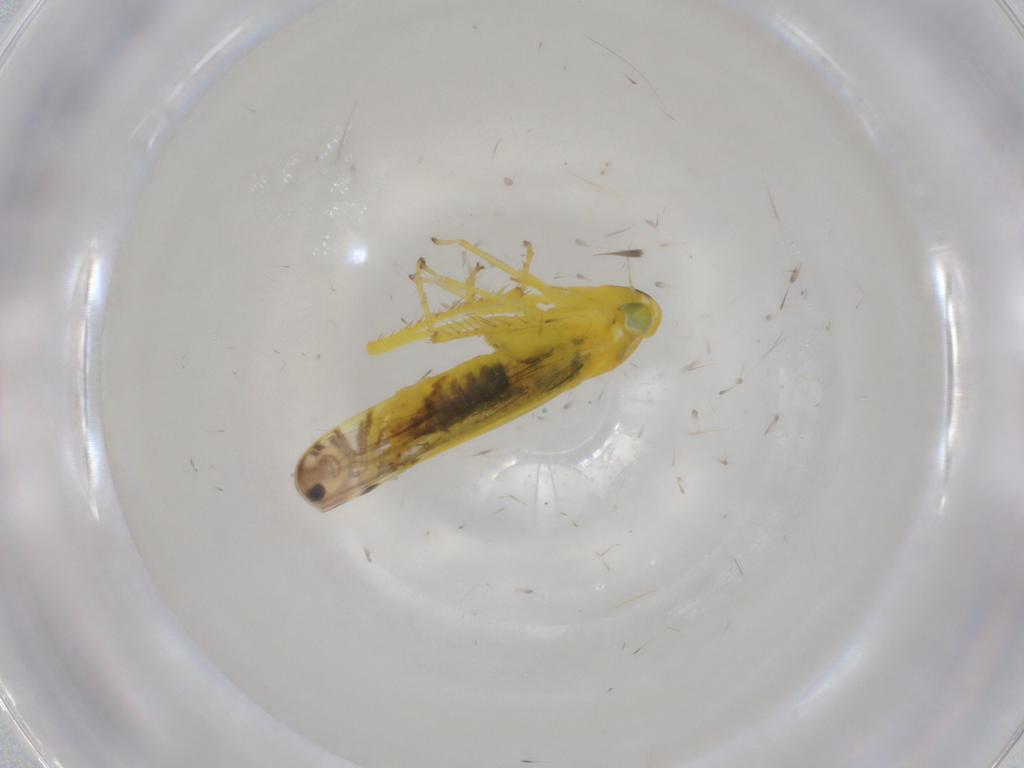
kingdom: Animalia
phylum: Arthropoda
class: Insecta
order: Hemiptera
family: Cicadellidae
